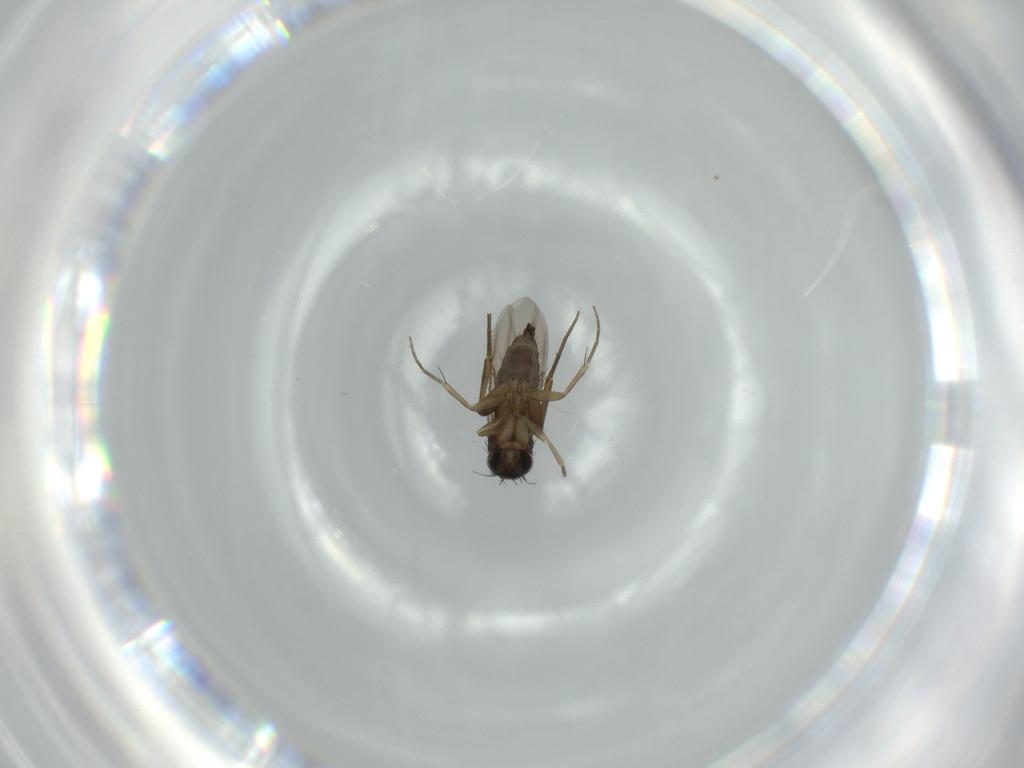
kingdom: Animalia
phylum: Arthropoda
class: Insecta
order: Diptera
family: Phoridae
